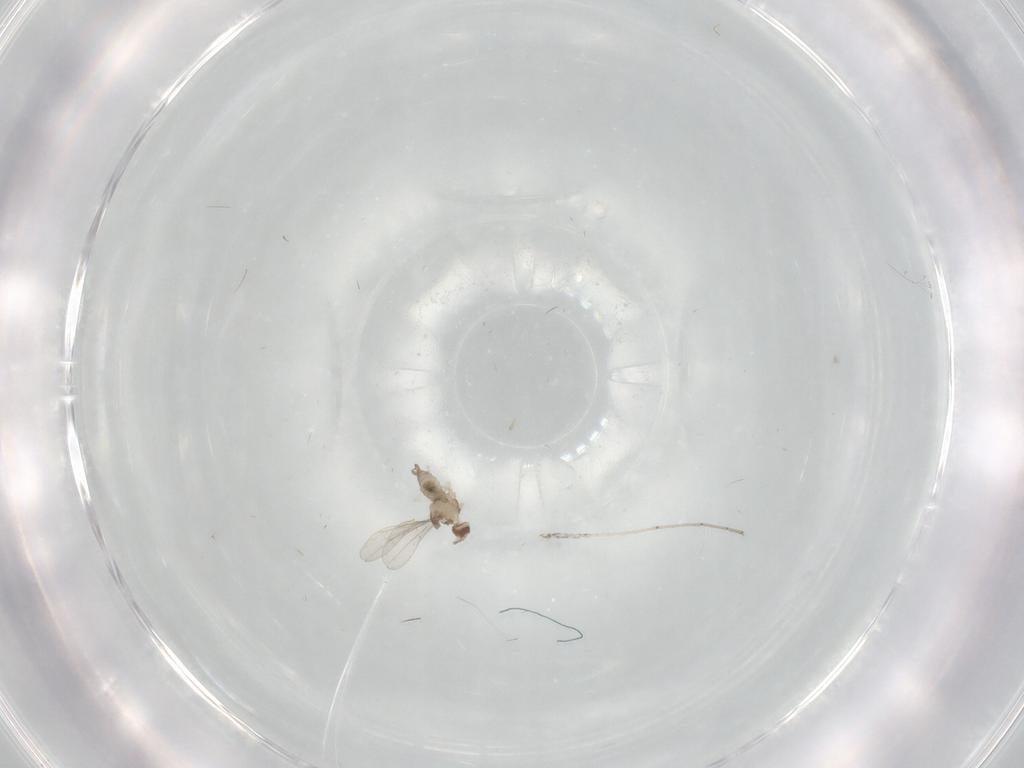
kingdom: Animalia
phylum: Arthropoda
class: Insecta
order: Diptera
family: Cecidomyiidae
